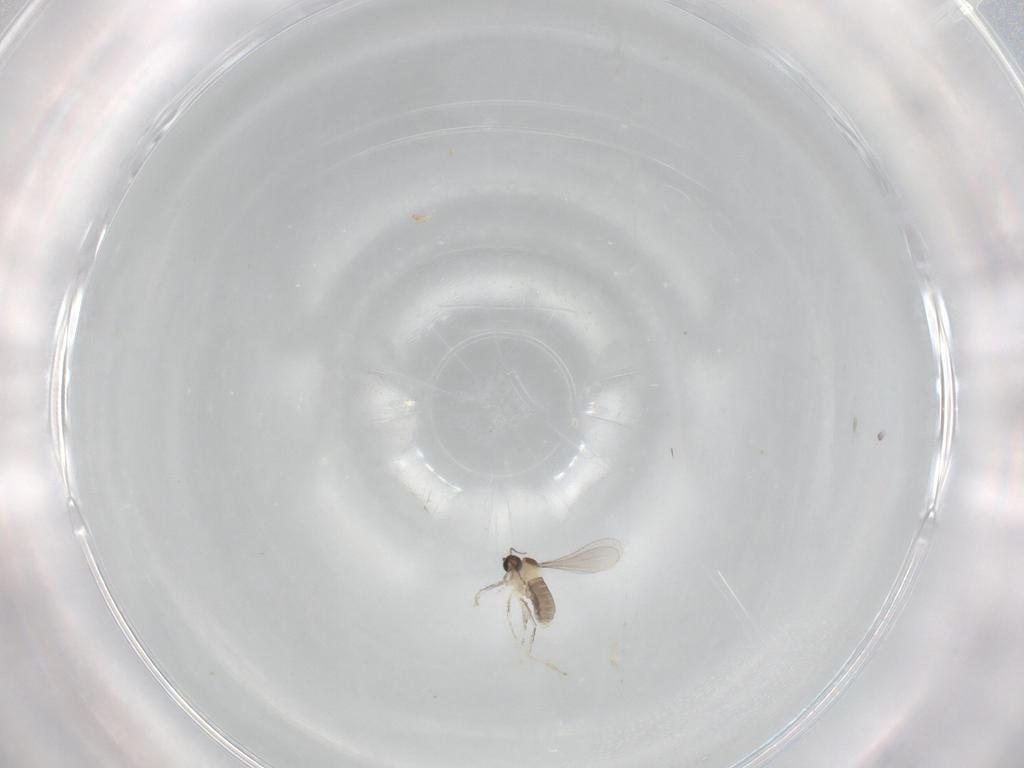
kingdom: Animalia
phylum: Arthropoda
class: Insecta
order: Diptera
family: Cecidomyiidae
